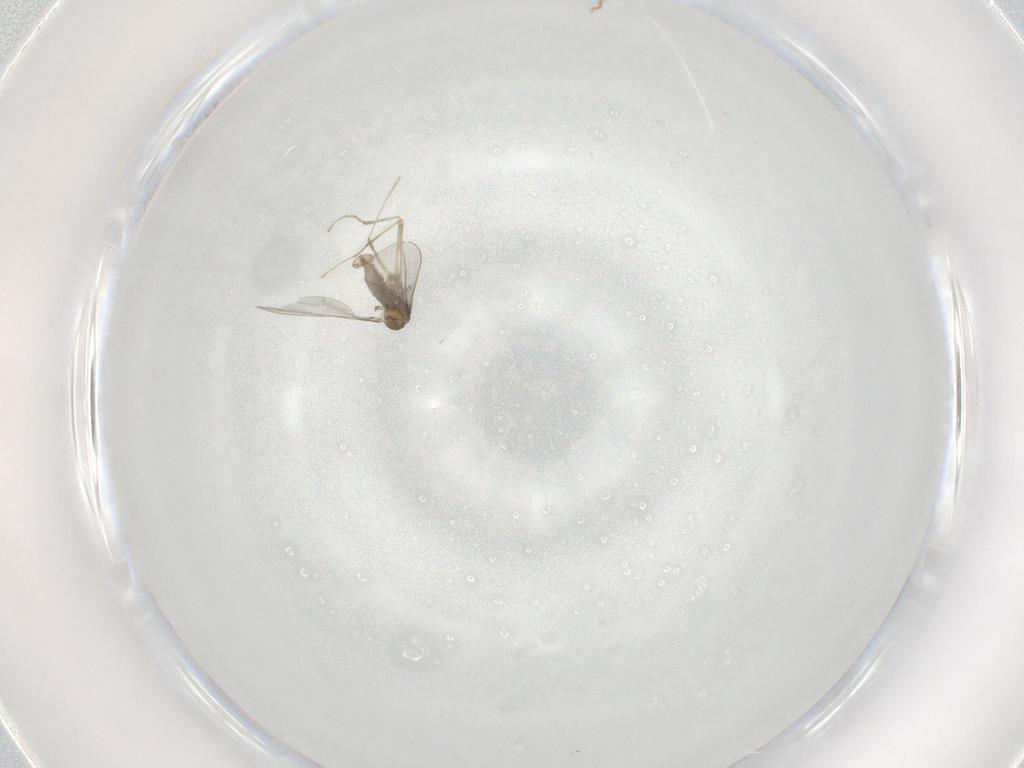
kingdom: Animalia
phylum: Arthropoda
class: Insecta
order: Diptera
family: Cecidomyiidae
